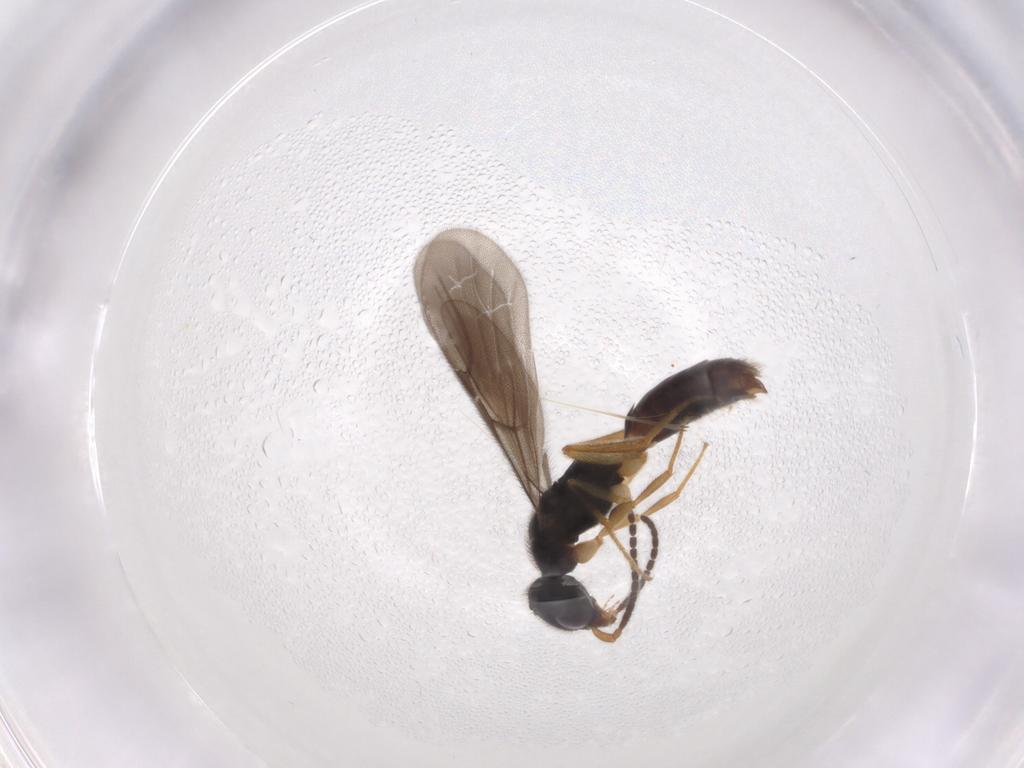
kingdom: Animalia
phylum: Arthropoda
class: Insecta
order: Hymenoptera
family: Bethylidae
